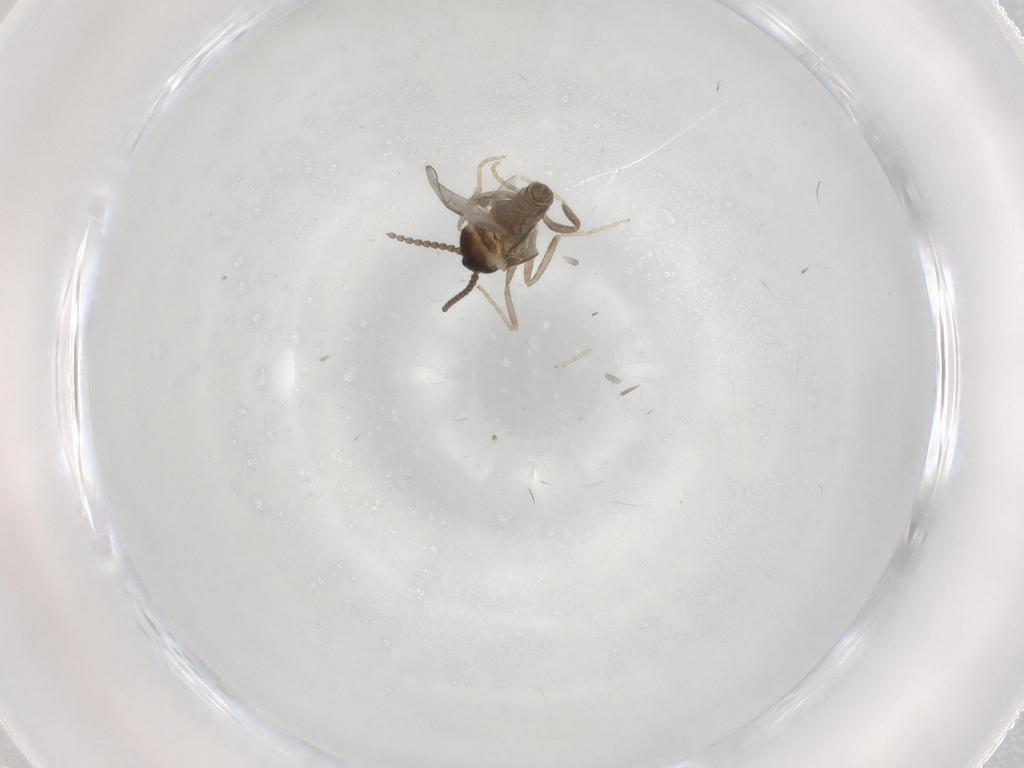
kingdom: Animalia
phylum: Arthropoda
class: Insecta
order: Diptera
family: Cecidomyiidae
